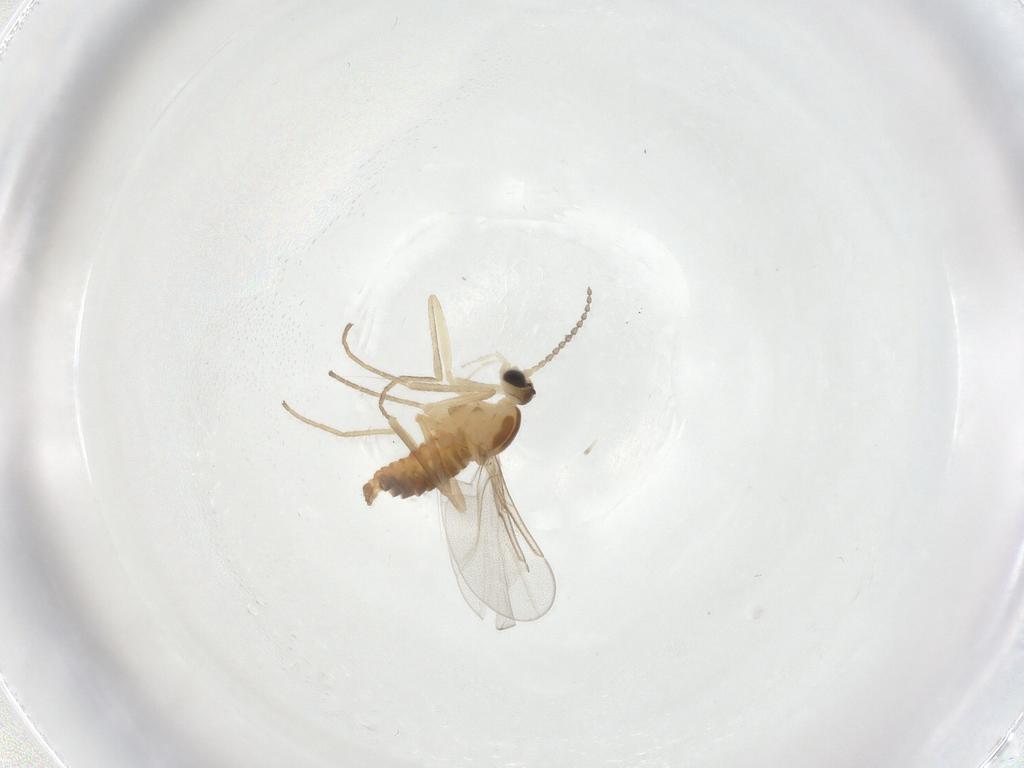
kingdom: Animalia
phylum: Arthropoda
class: Insecta
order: Diptera
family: Cecidomyiidae
